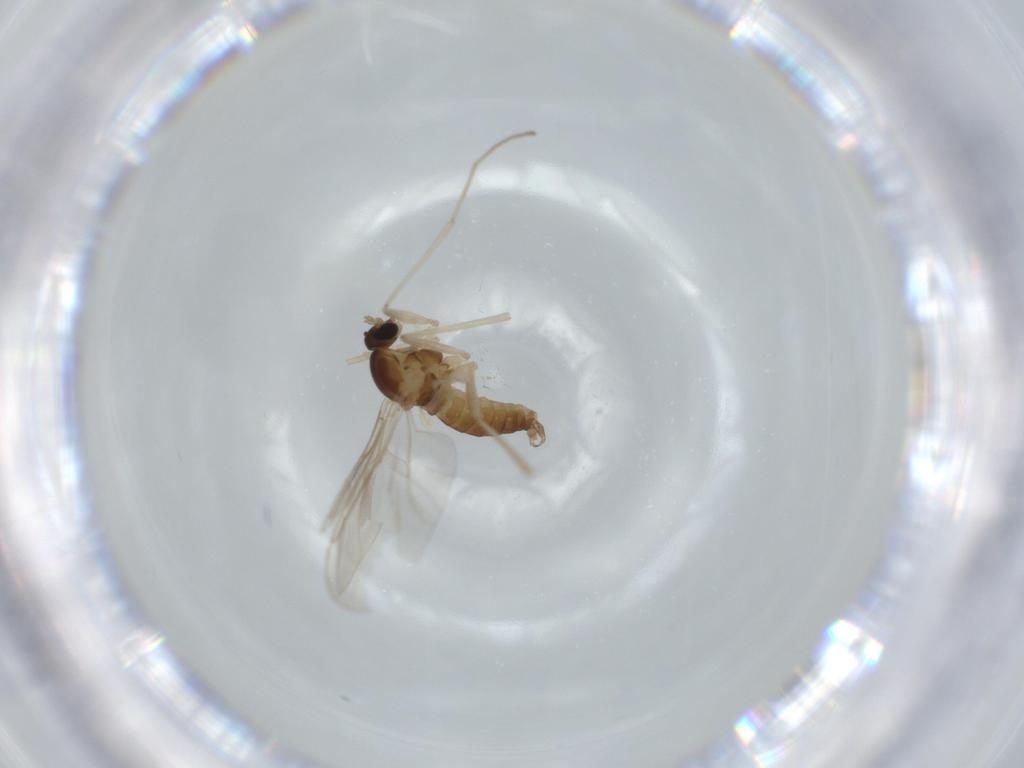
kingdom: Animalia
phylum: Arthropoda
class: Insecta
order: Diptera
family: Cecidomyiidae
